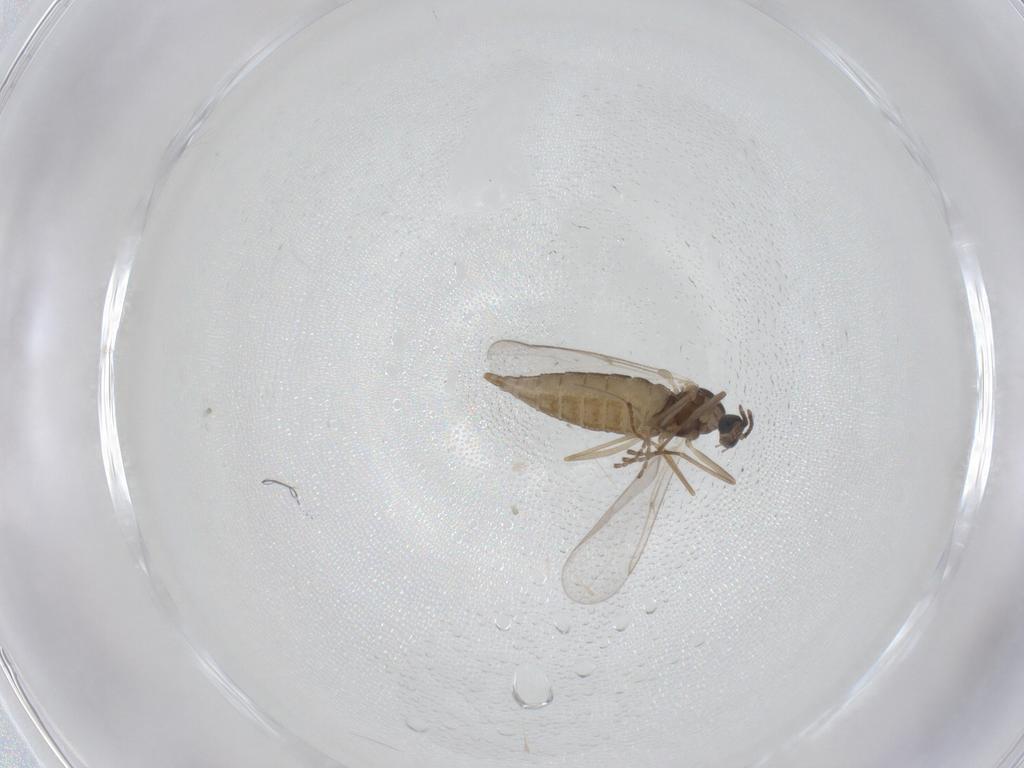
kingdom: Animalia
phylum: Arthropoda
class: Insecta
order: Diptera
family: Cecidomyiidae
